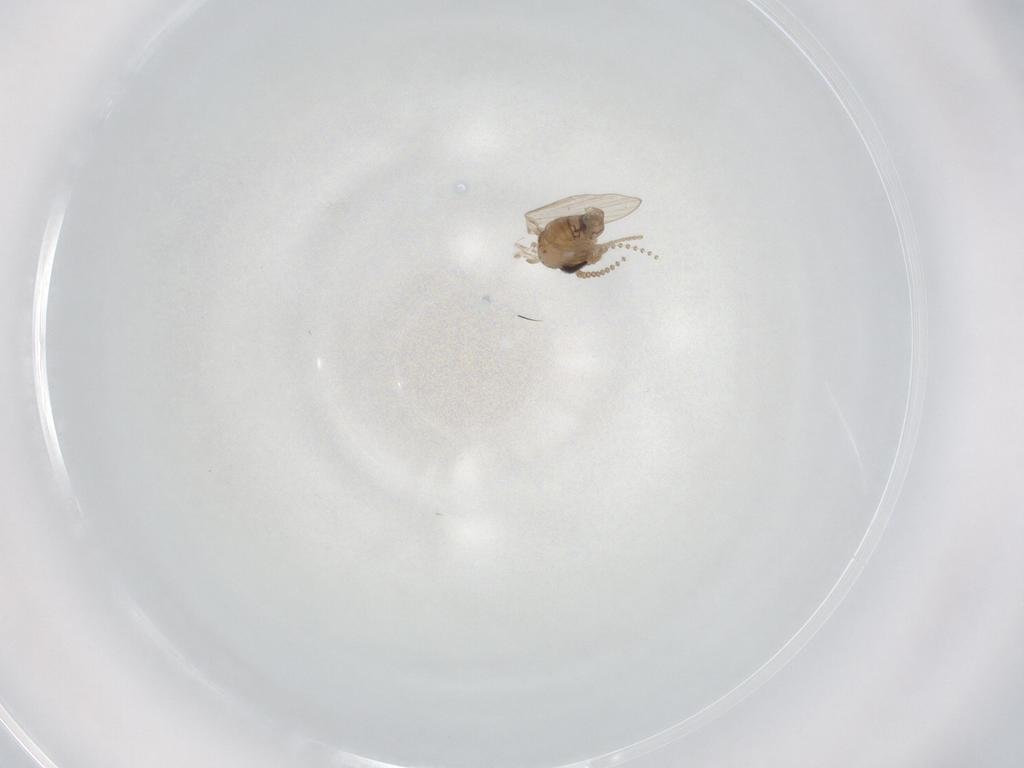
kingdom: Animalia
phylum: Arthropoda
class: Insecta
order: Diptera
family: Psychodidae
